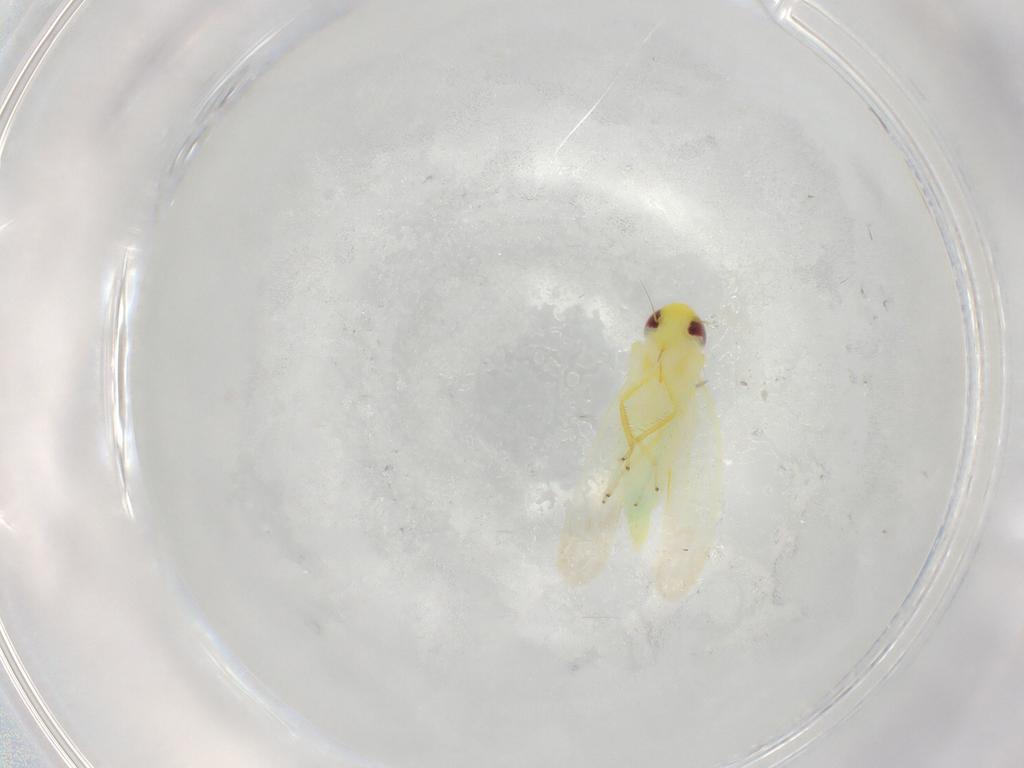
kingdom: Animalia
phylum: Arthropoda
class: Insecta
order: Hemiptera
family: Cicadellidae
